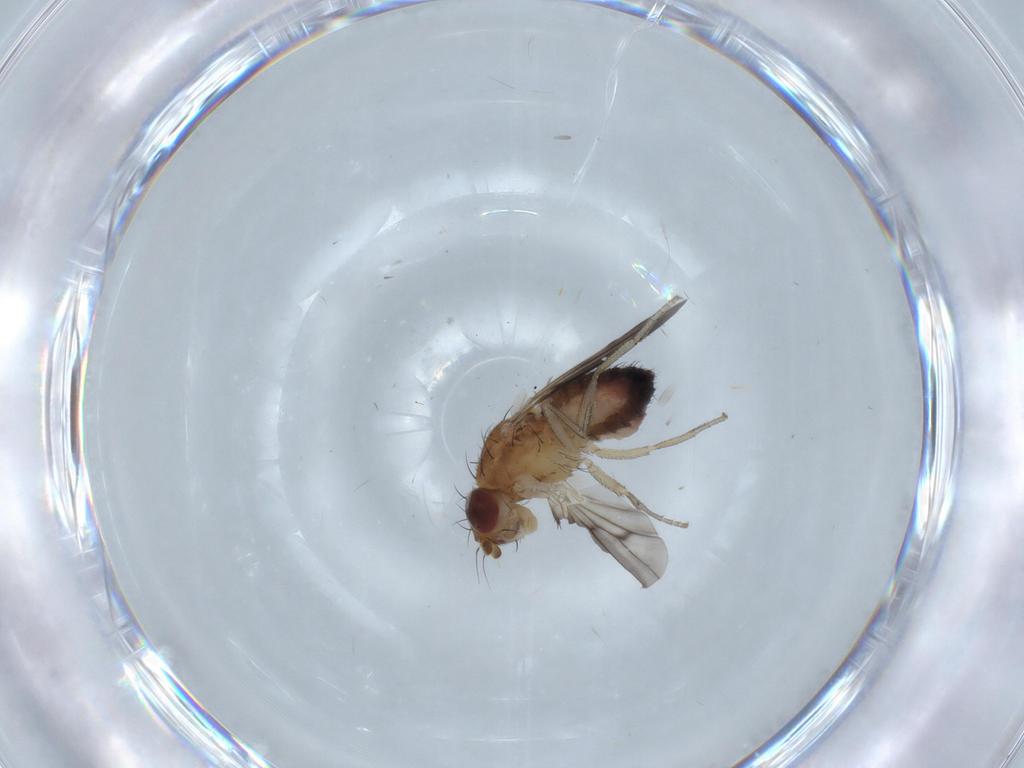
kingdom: Animalia
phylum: Arthropoda
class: Insecta
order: Diptera
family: Heleomyzidae
